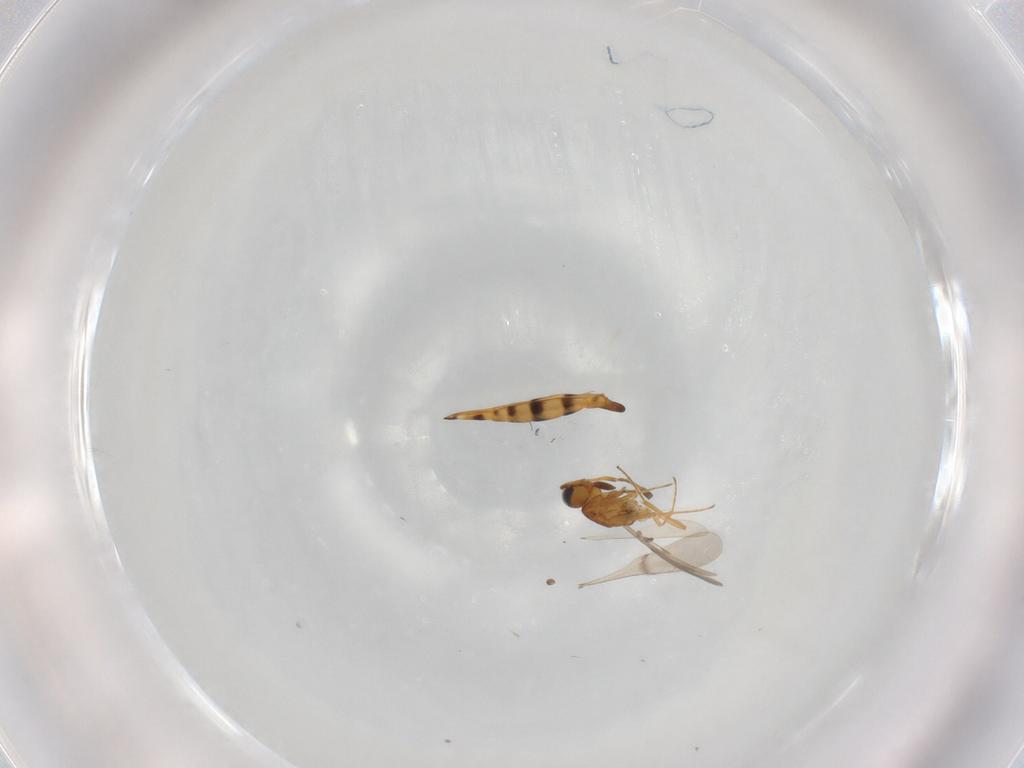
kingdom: Animalia
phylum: Arthropoda
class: Insecta
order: Hymenoptera
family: Scelionidae
